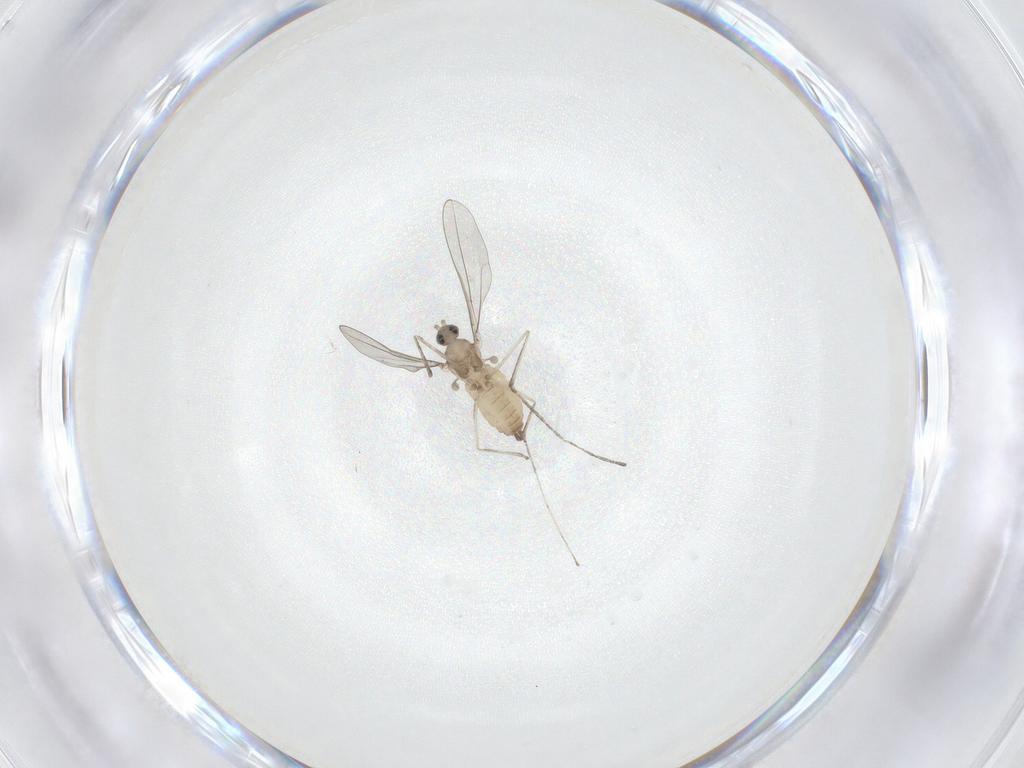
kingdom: Animalia
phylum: Arthropoda
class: Insecta
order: Diptera
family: Cecidomyiidae
